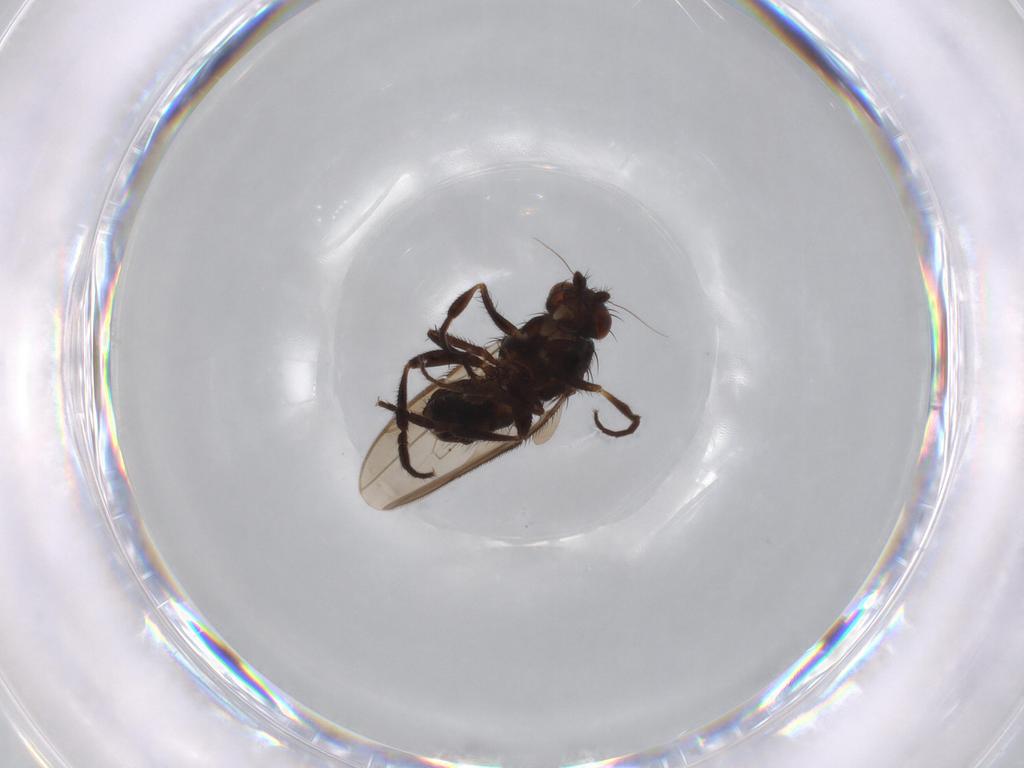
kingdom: Animalia
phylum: Arthropoda
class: Insecta
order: Diptera
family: Sphaeroceridae
